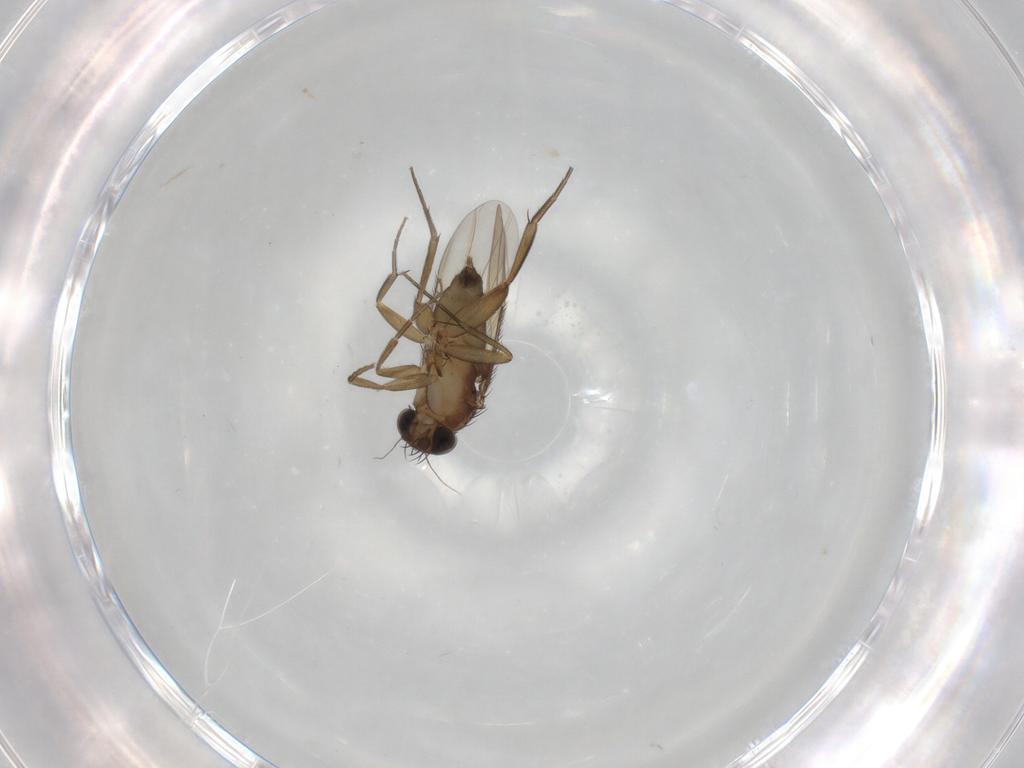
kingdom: Animalia
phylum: Arthropoda
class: Insecta
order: Diptera
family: Phoridae
